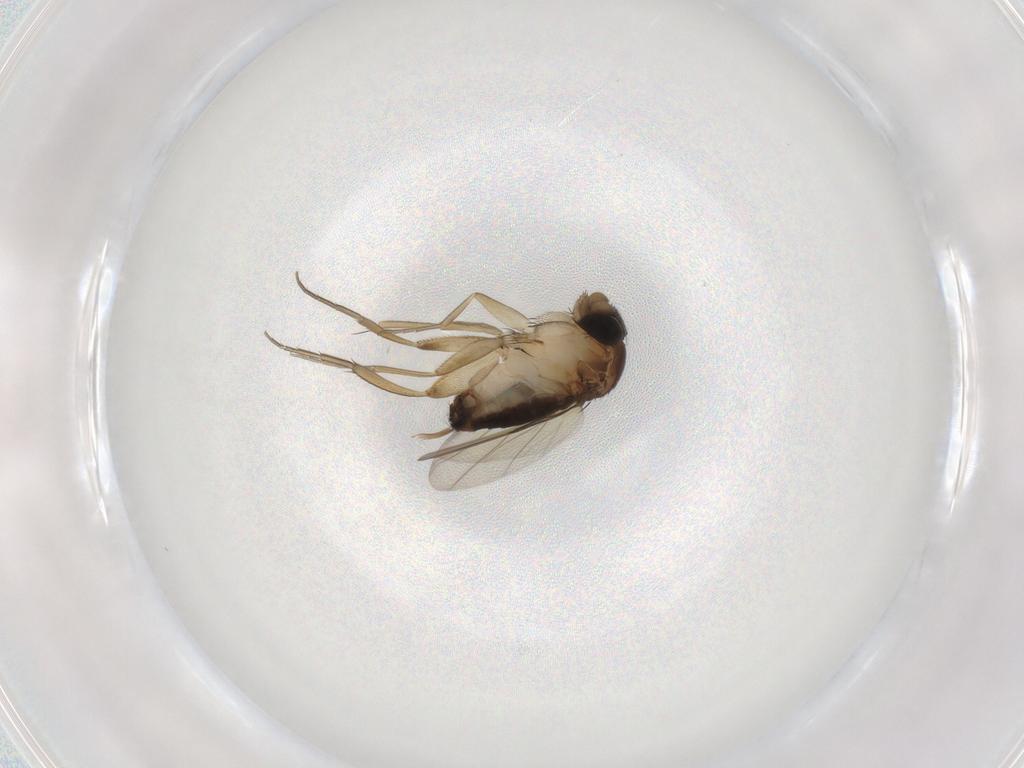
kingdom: Animalia
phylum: Arthropoda
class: Insecta
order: Diptera
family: Phoridae
